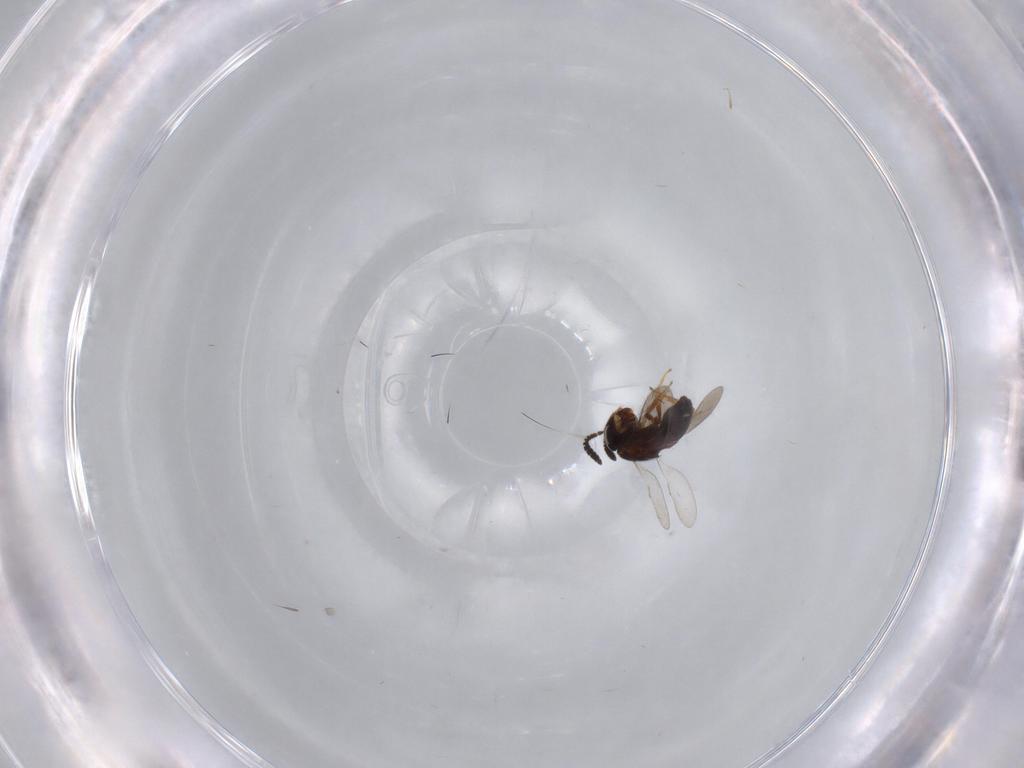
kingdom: Animalia
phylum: Arthropoda
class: Insecta
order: Hymenoptera
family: Scelionidae
